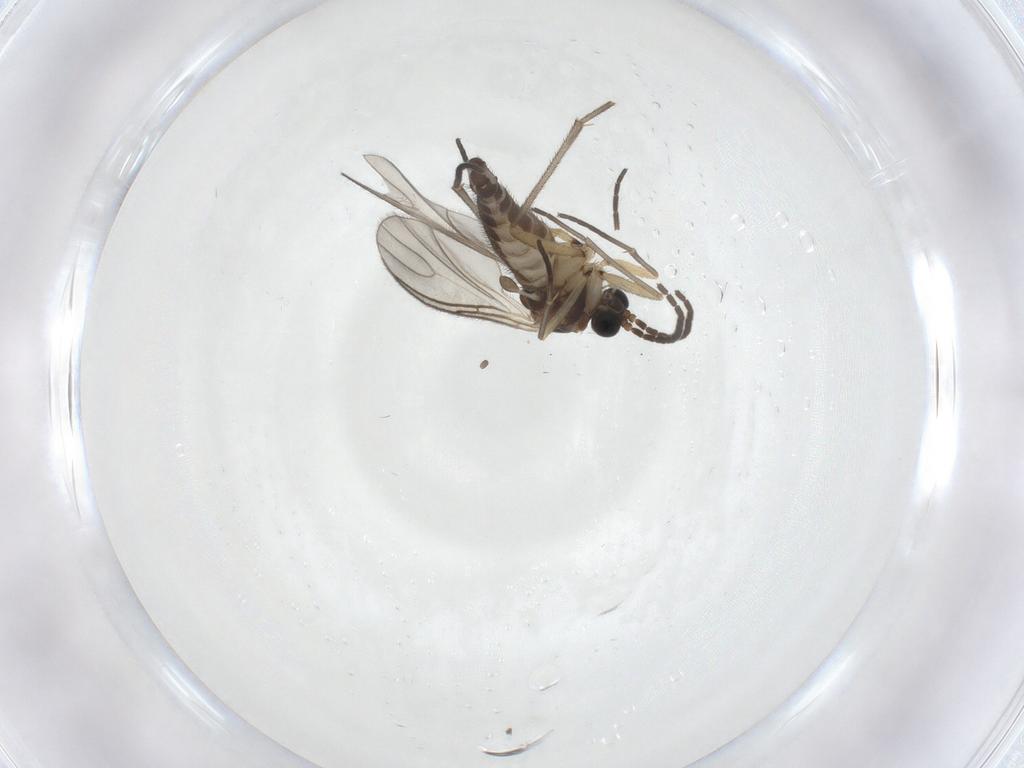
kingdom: Animalia
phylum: Arthropoda
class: Insecta
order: Diptera
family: Sciaridae
